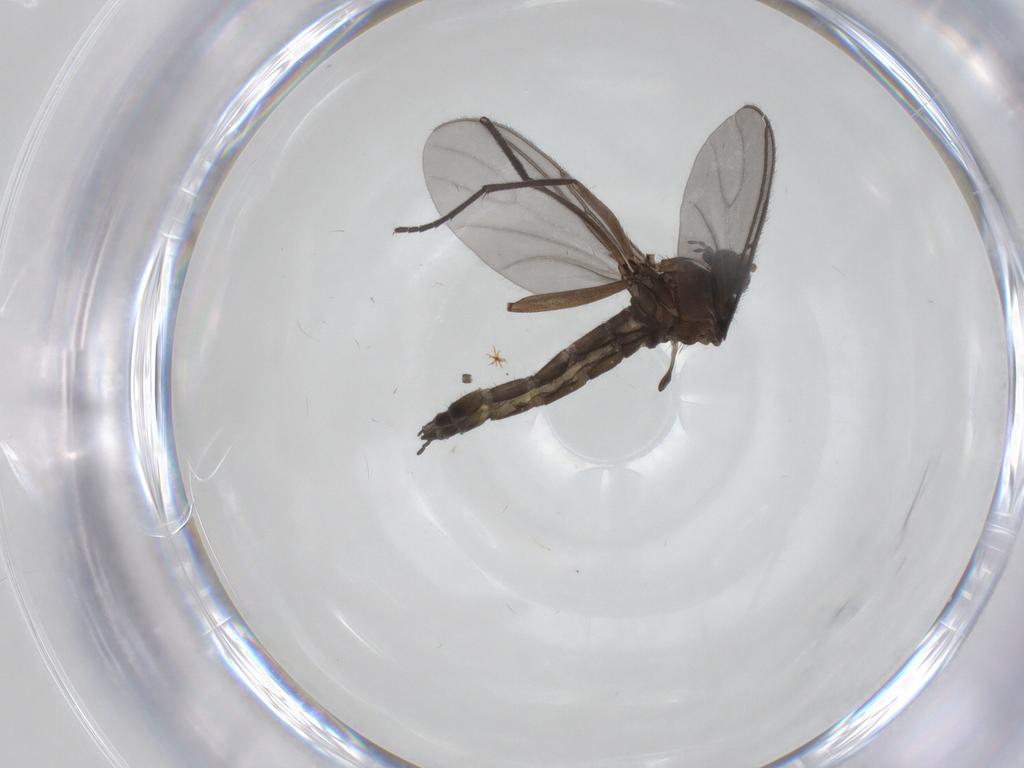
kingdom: Animalia
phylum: Arthropoda
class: Insecta
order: Diptera
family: Sciaridae
